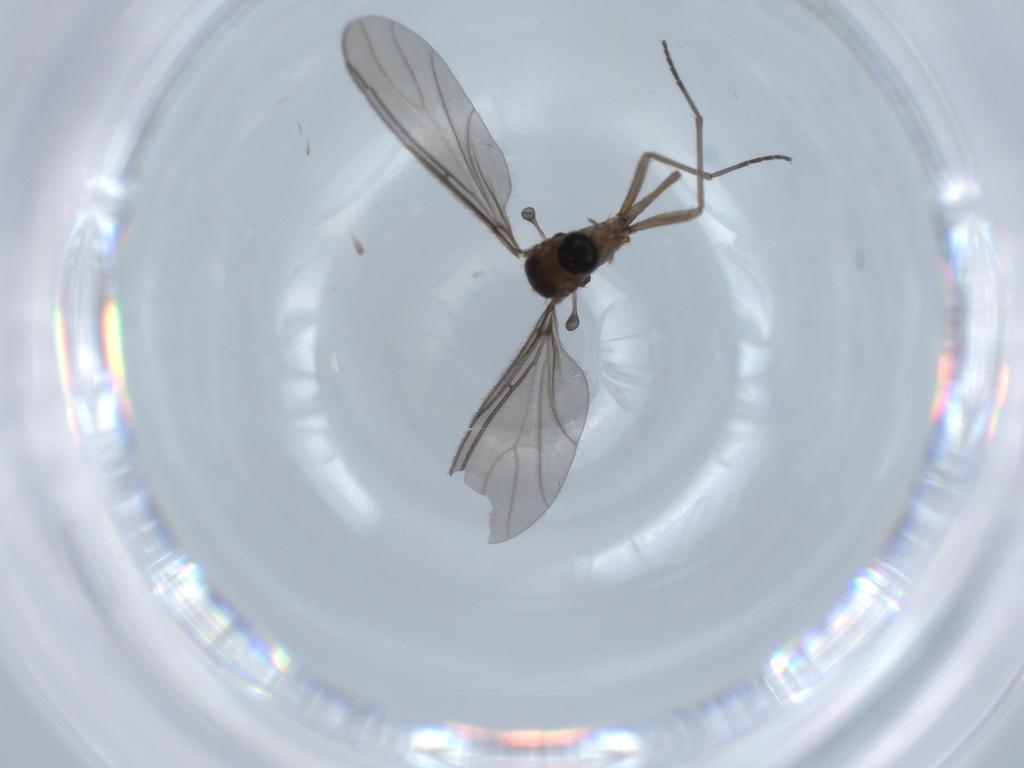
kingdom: Animalia
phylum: Arthropoda
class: Insecta
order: Diptera
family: Sciaridae
